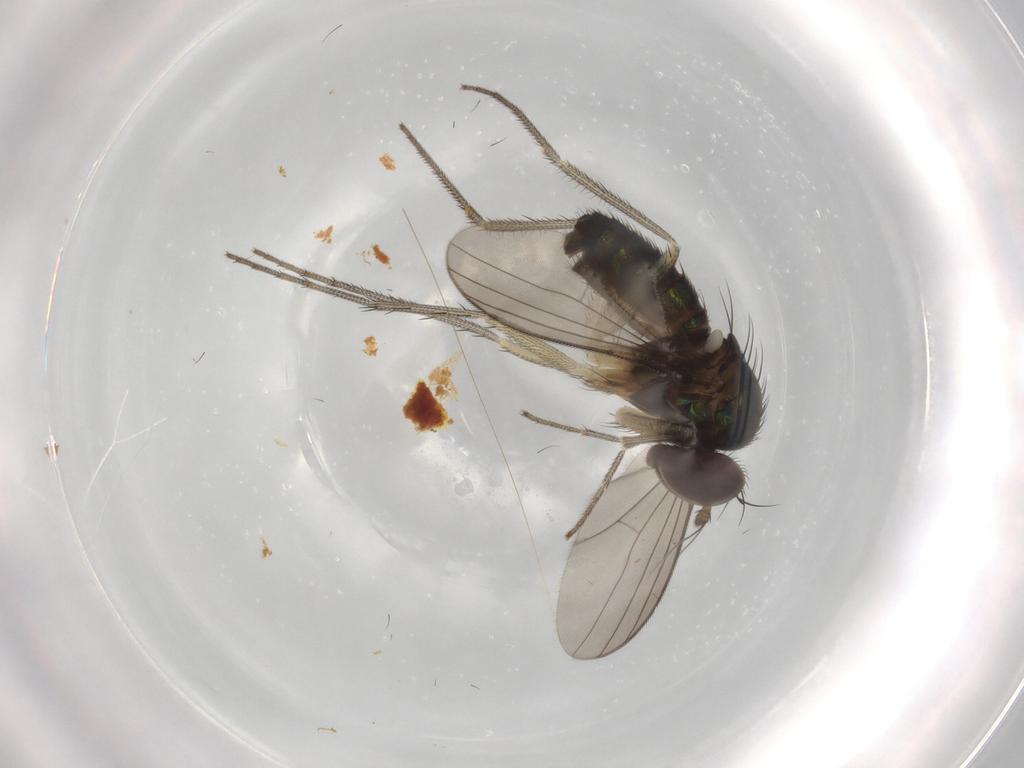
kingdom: Animalia
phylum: Arthropoda
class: Insecta
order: Diptera
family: Dolichopodidae
